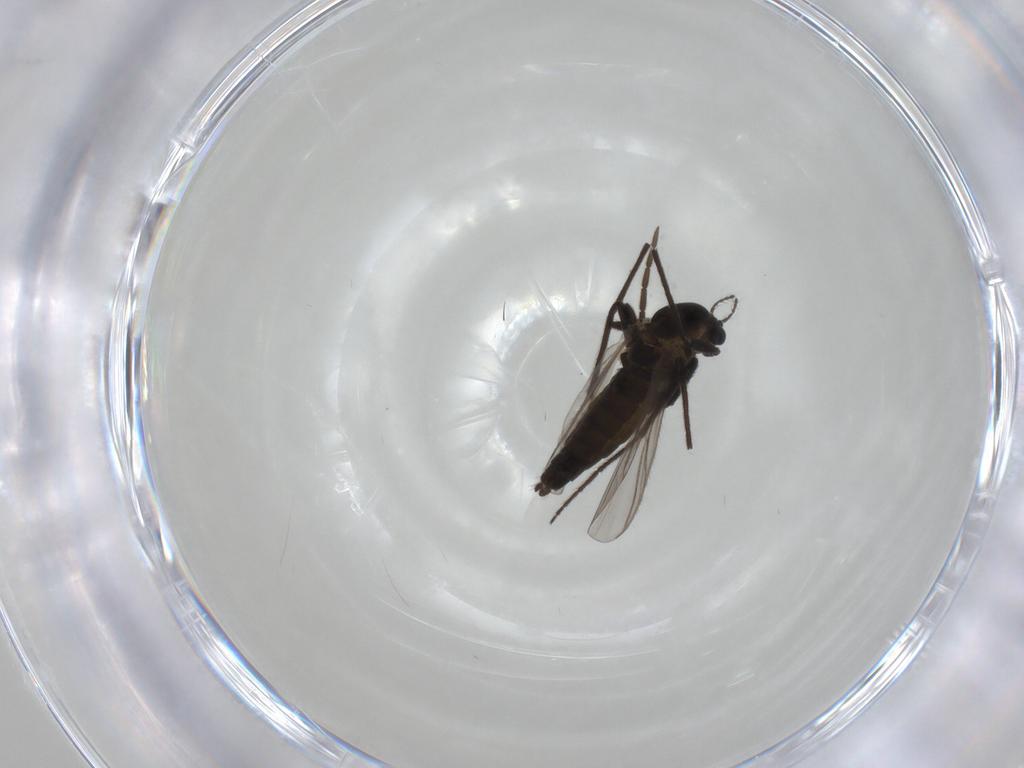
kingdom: Animalia
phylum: Arthropoda
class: Insecta
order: Diptera
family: Chironomidae
